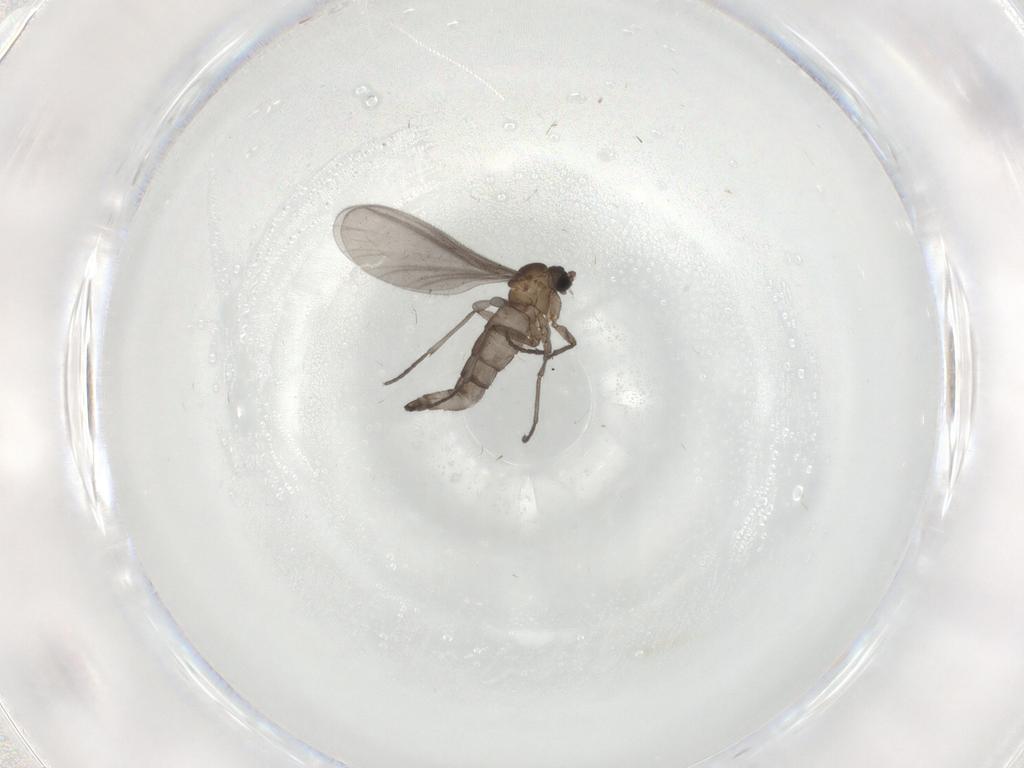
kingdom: Animalia
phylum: Arthropoda
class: Insecta
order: Diptera
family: Sciaridae
